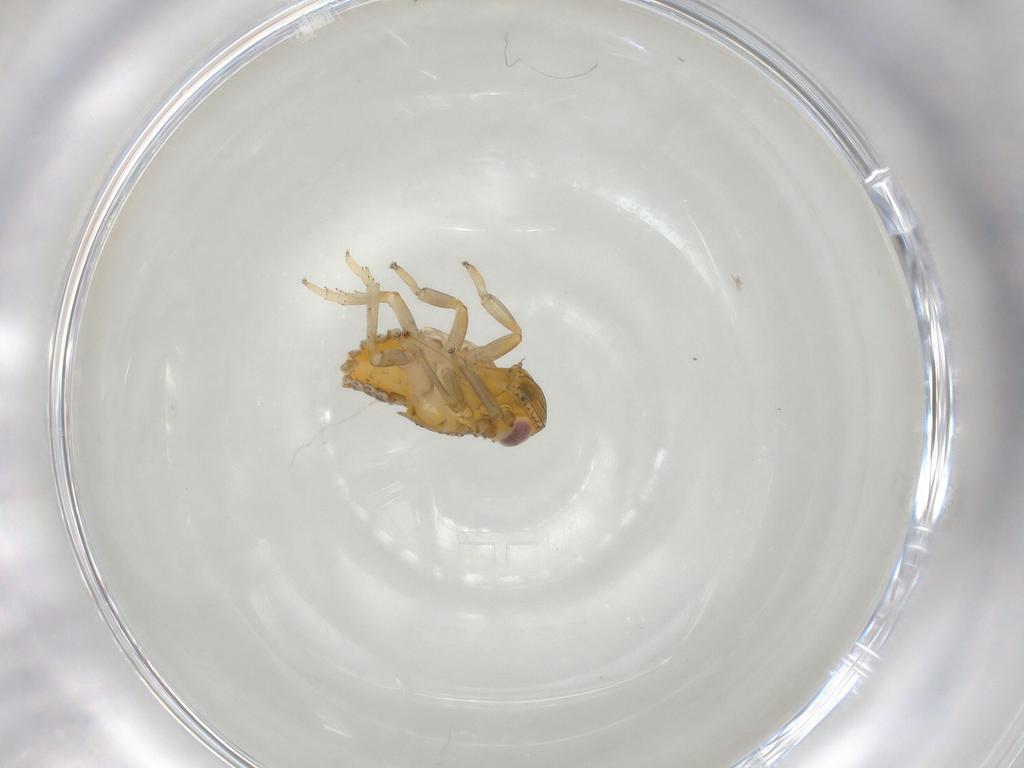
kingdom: Animalia
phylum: Arthropoda
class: Insecta
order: Hemiptera
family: Issidae
